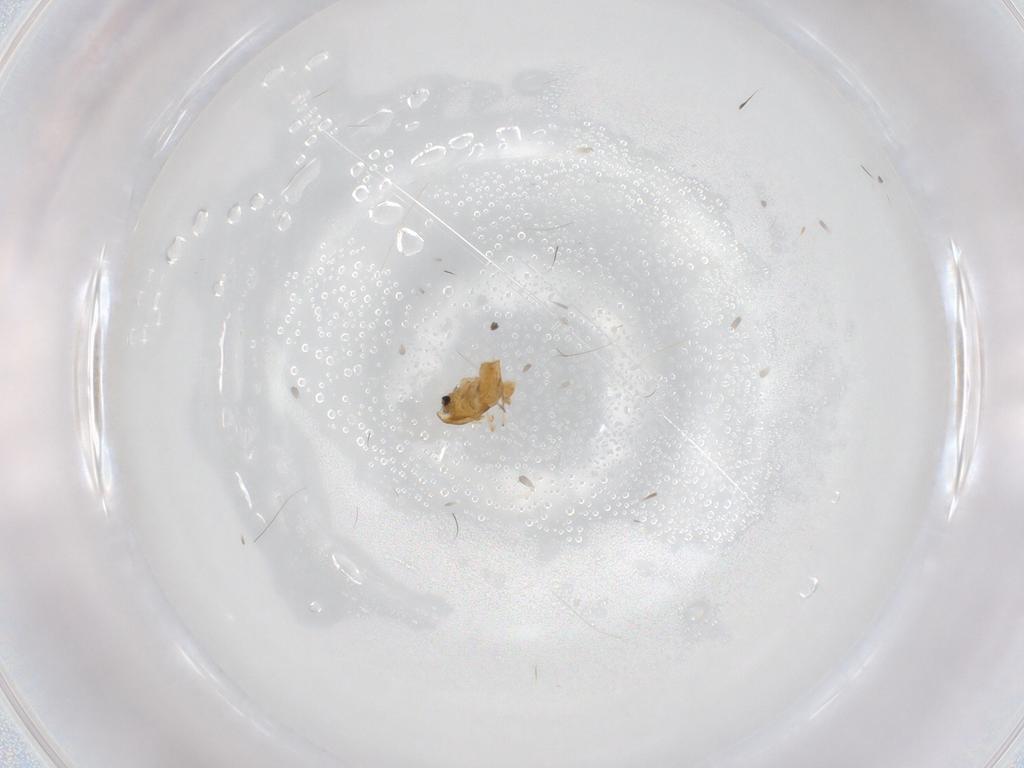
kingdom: Animalia
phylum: Arthropoda
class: Insecta
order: Diptera
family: Chironomidae
